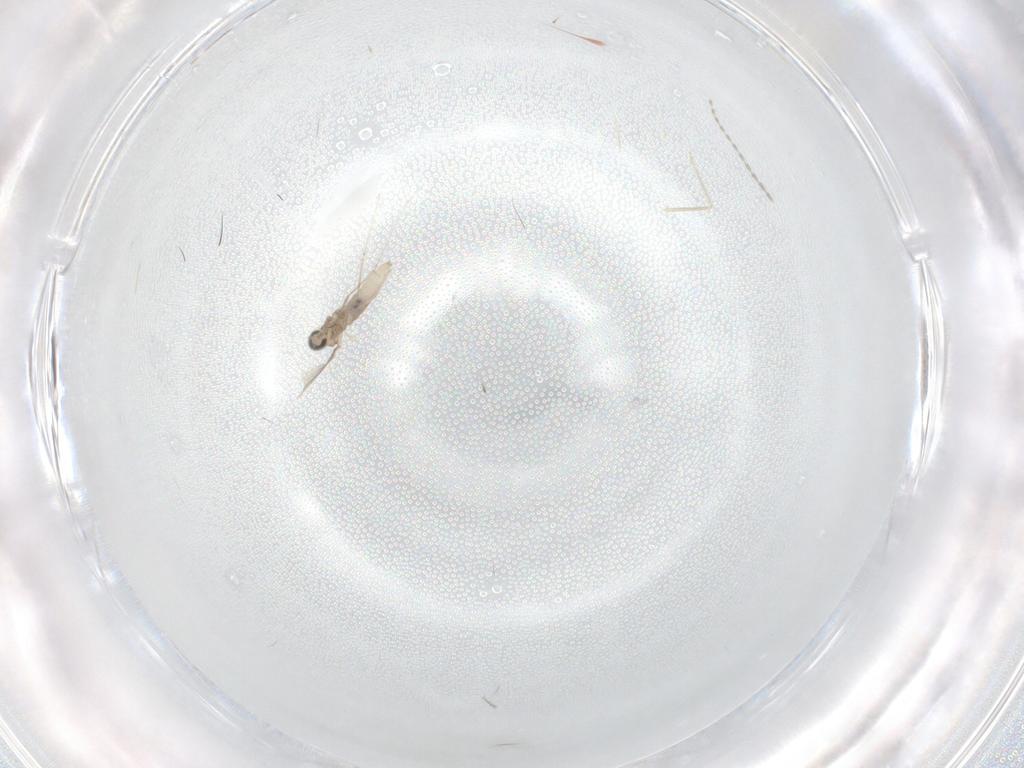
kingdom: Animalia
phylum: Arthropoda
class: Insecta
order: Diptera
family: Cecidomyiidae
